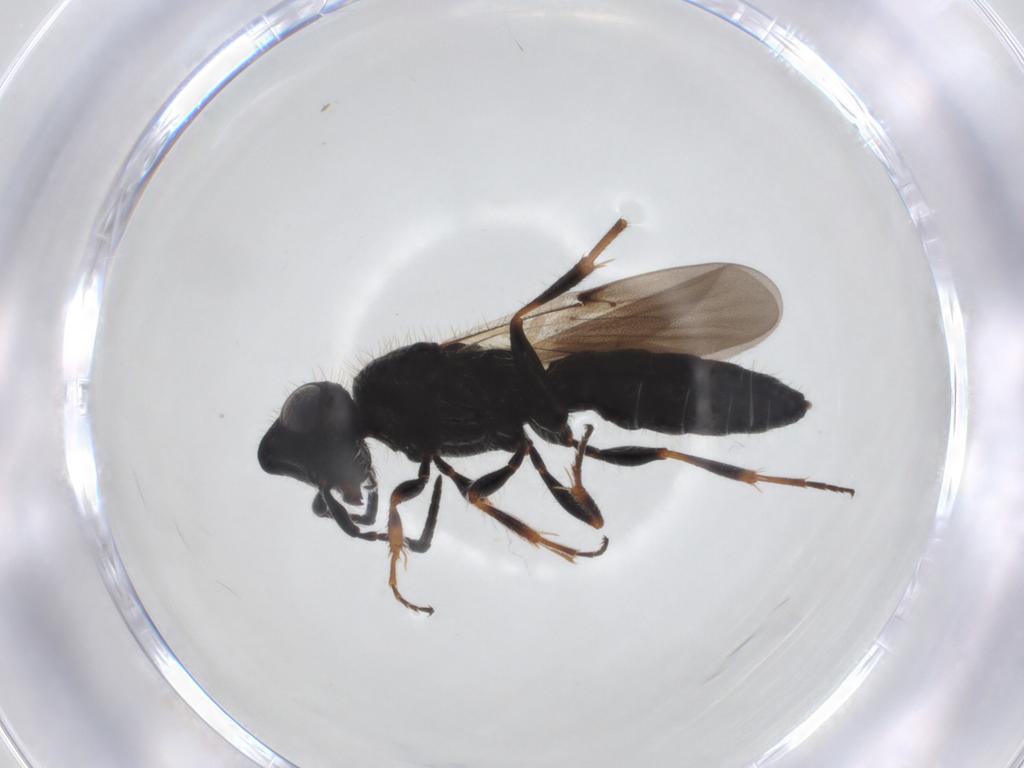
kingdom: Animalia
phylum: Arthropoda
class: Insecta
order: Hymenoptera
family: Scelionidae
